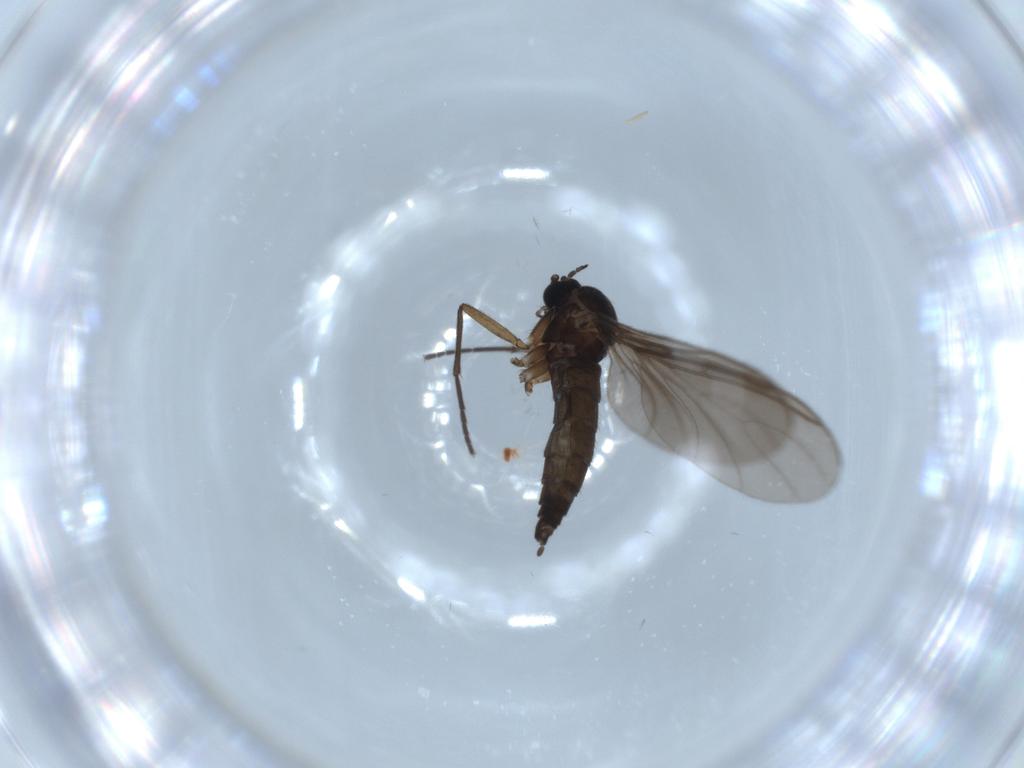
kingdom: Animalia
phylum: Arthropoda
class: Insecta
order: Diptera
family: Sciaridae
